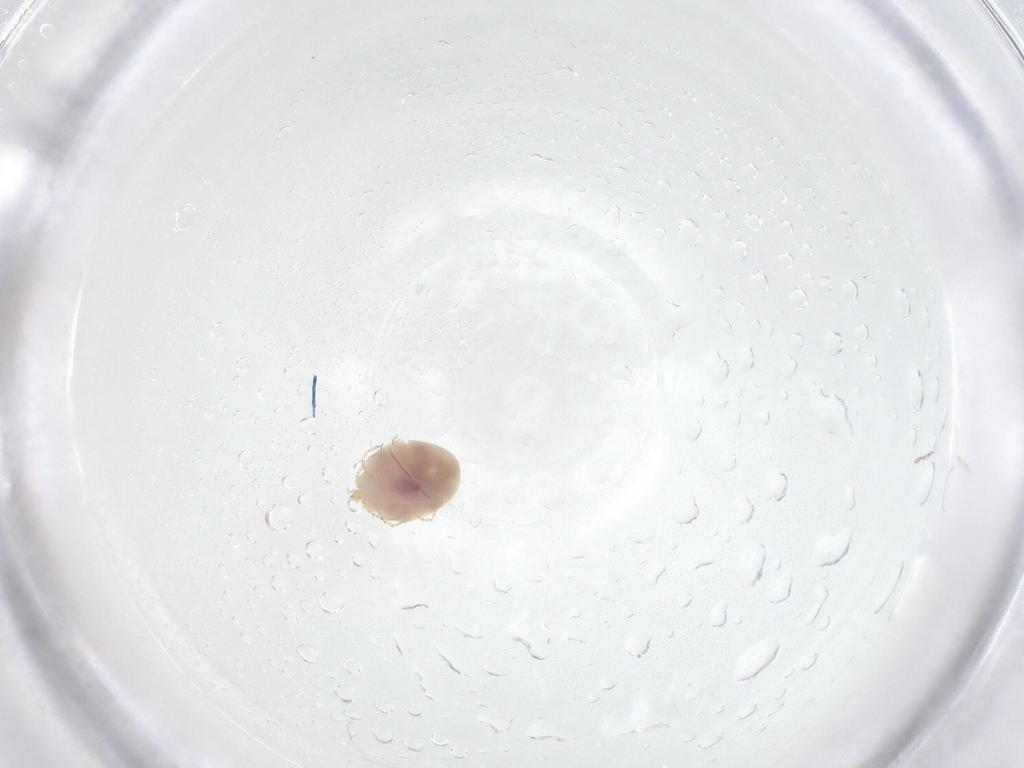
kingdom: Animalia
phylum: Arthropoda
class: Arachnida
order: Trombidiformes
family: Erythraeidae
